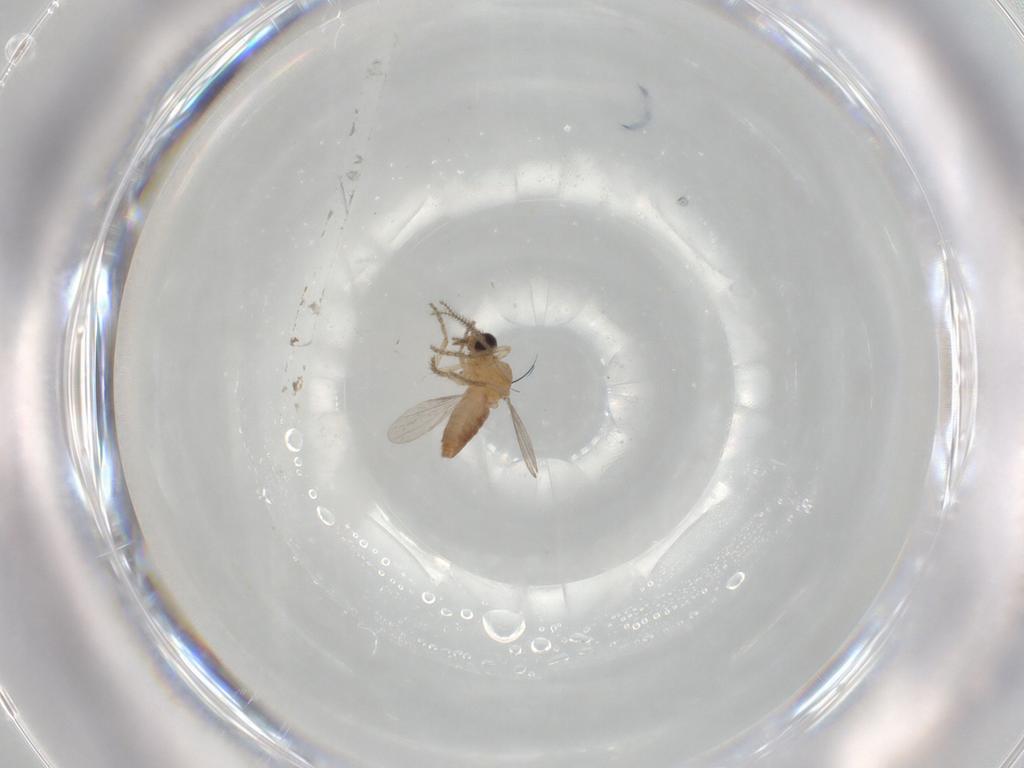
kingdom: Animalia
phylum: Arthropoda
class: Insecta
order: Diptera
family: Ceratopogonidae
